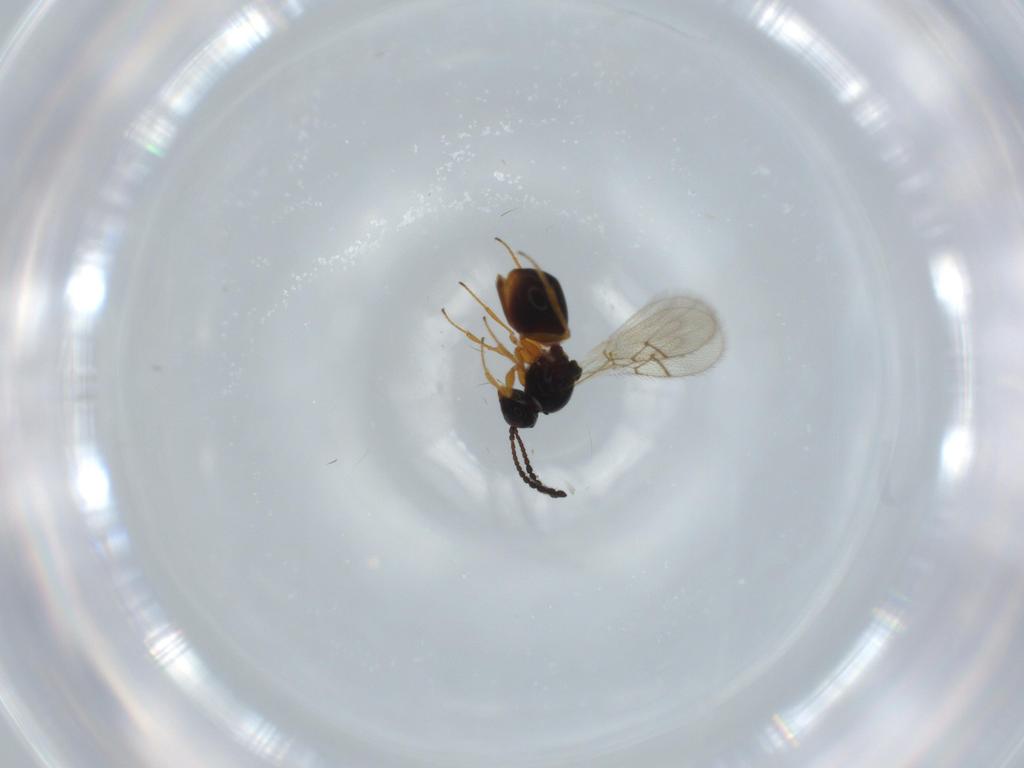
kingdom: Animalia
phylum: Arthropoda
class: Insecta
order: Hymenoptera
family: Figitidae
